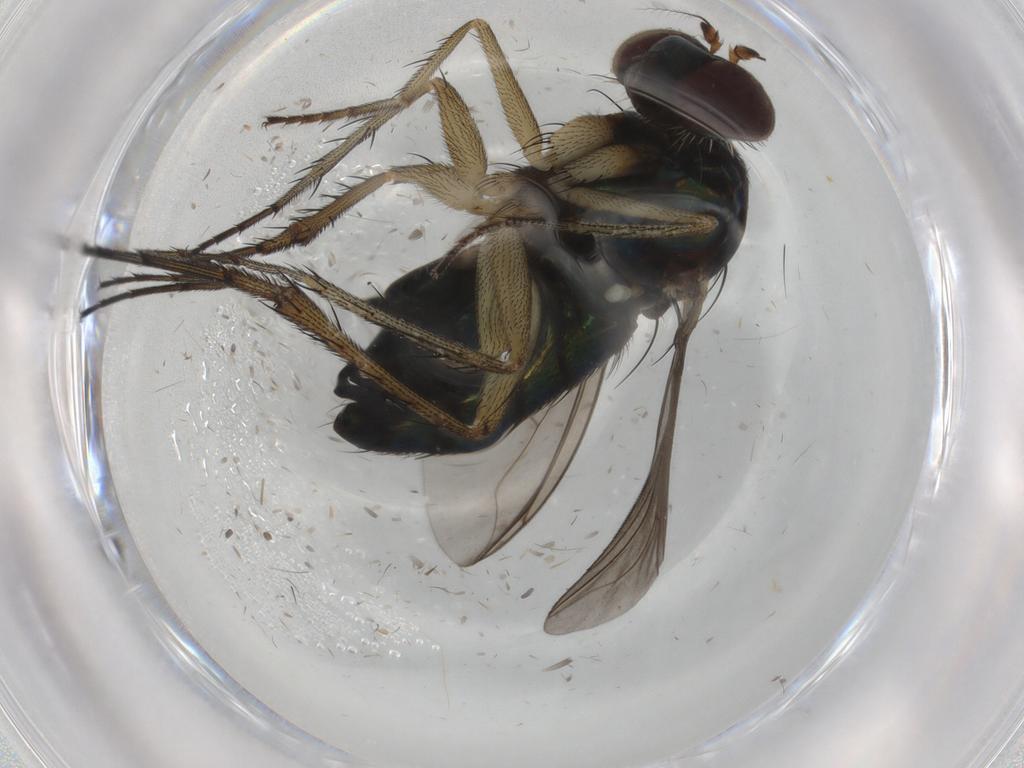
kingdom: Animalia
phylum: Arthropoda
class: Insecta
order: Diptera
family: Dolichopodidae
